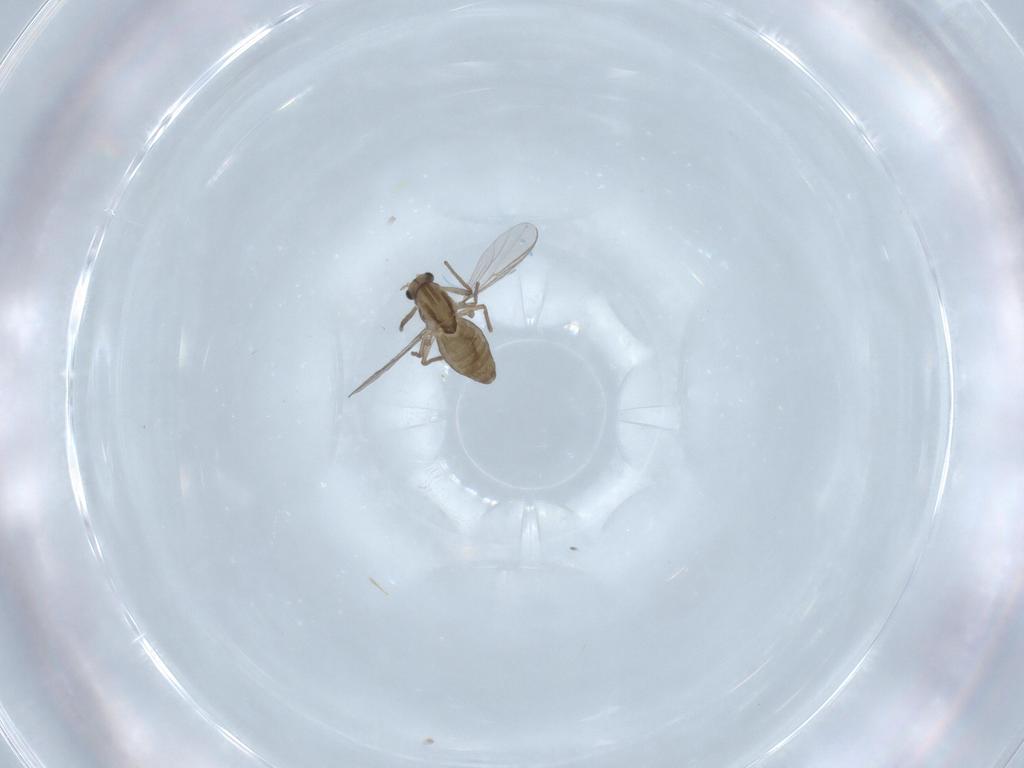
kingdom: Animalia
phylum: Arthropoda
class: Insecta
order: Diptera
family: Chironomidae
